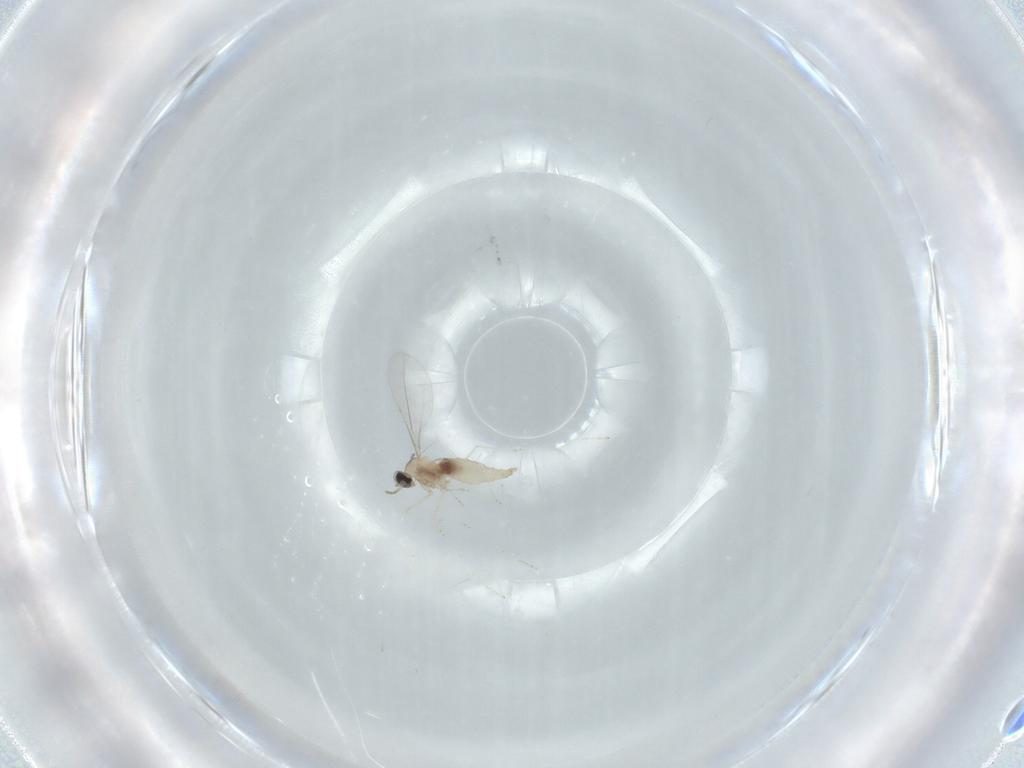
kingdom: Animalia
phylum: Arthropoda
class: Insecta
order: Diptera
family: Cecidomyiidae
